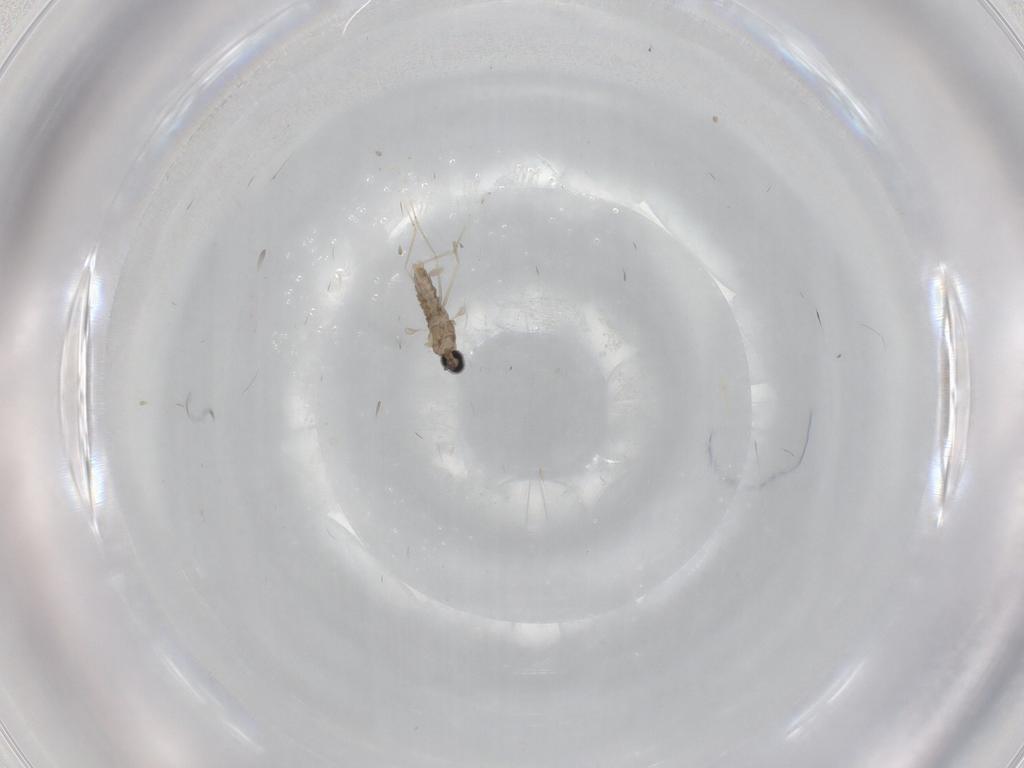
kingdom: Animalia
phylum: Arthropoda
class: Insecta
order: Diptera
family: Cecidomyiidae
